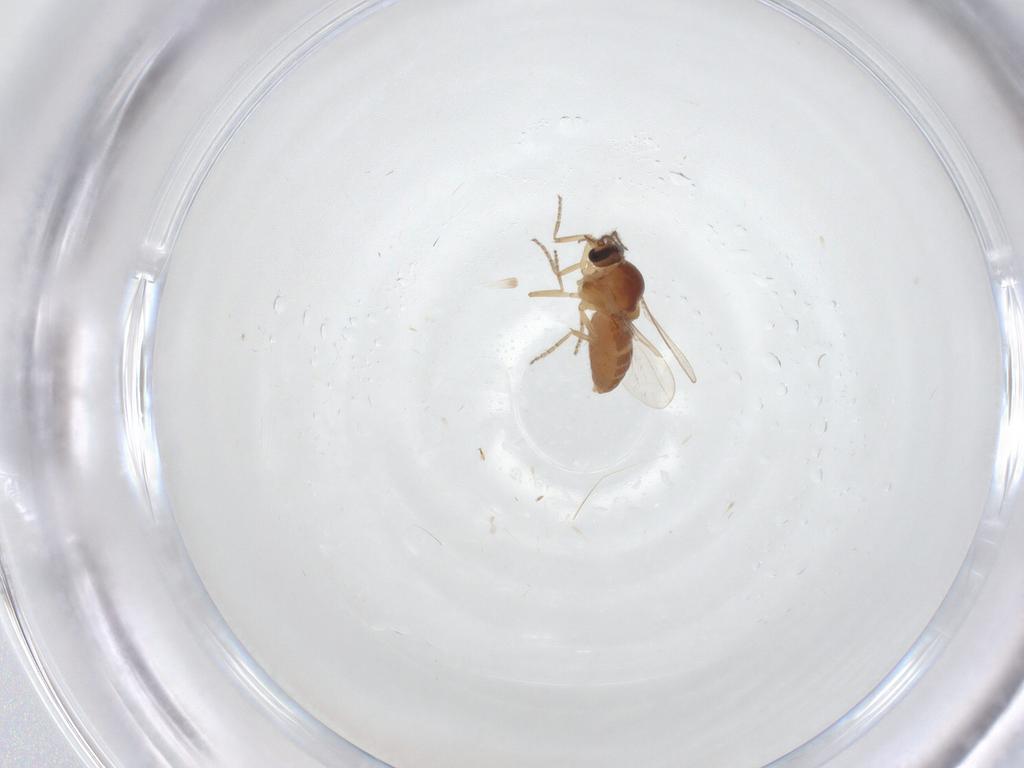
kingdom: Animalia
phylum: Arthropoda
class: Insecta
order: Diptera
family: Ceratopogonidae
